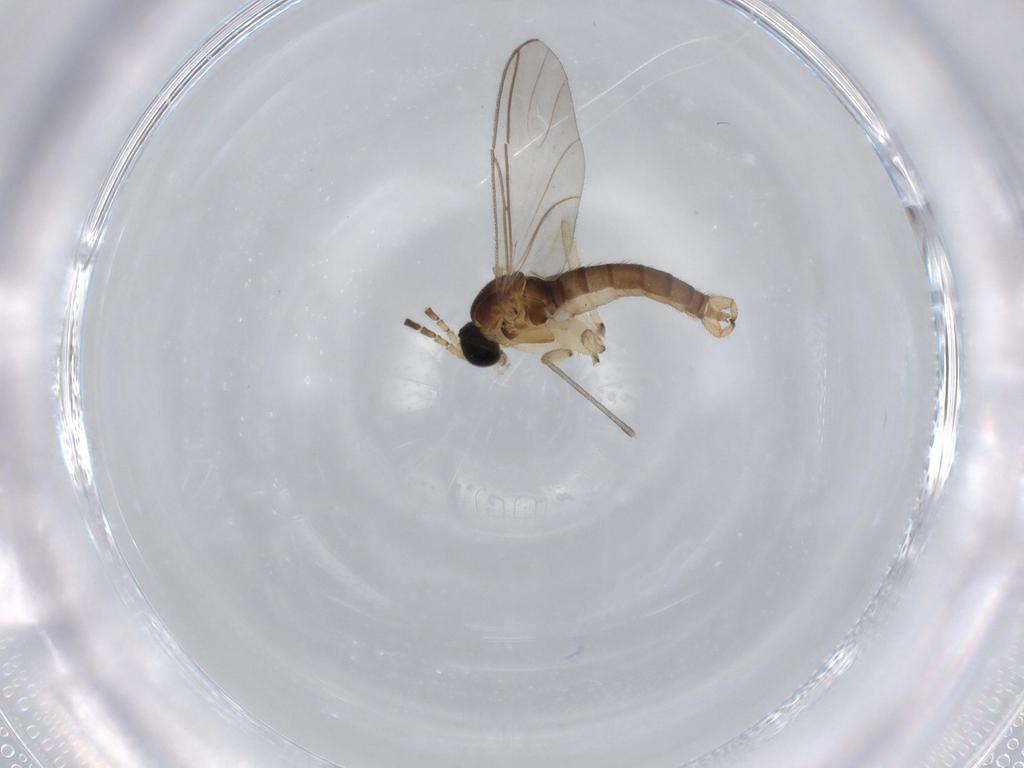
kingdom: Animalia
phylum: Arthropoda
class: Insecta
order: Diptera
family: Sciaridae
